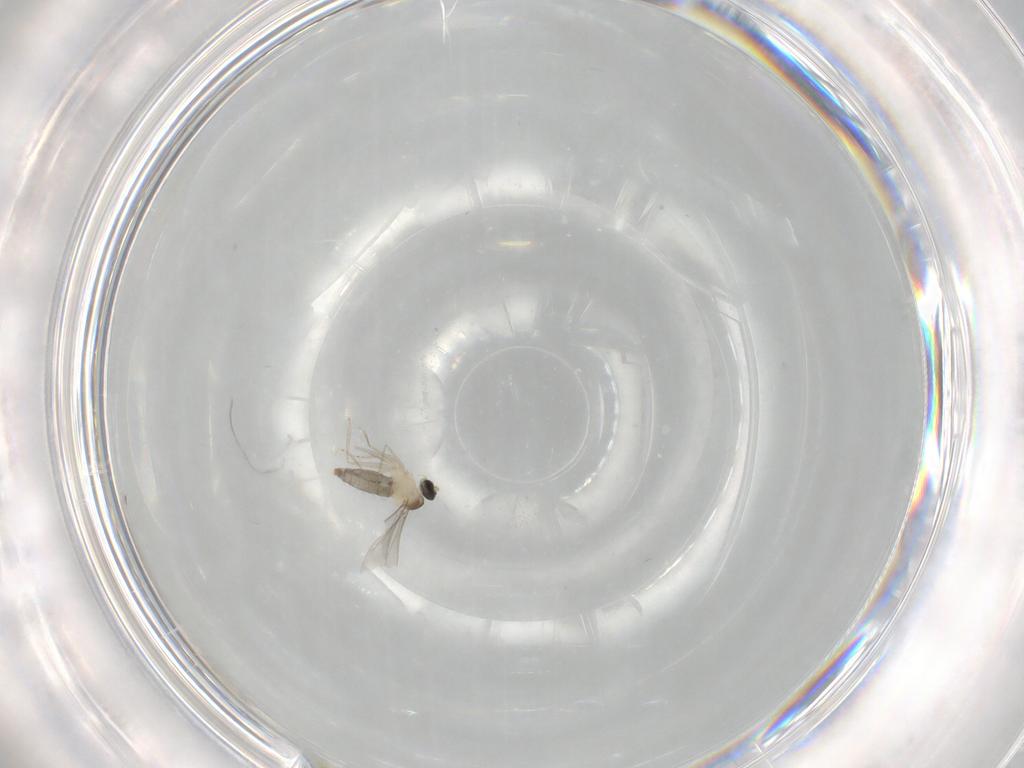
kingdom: Animalia
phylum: Arthropoda
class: Insecta
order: Diptera
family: Cecidomyiidae
